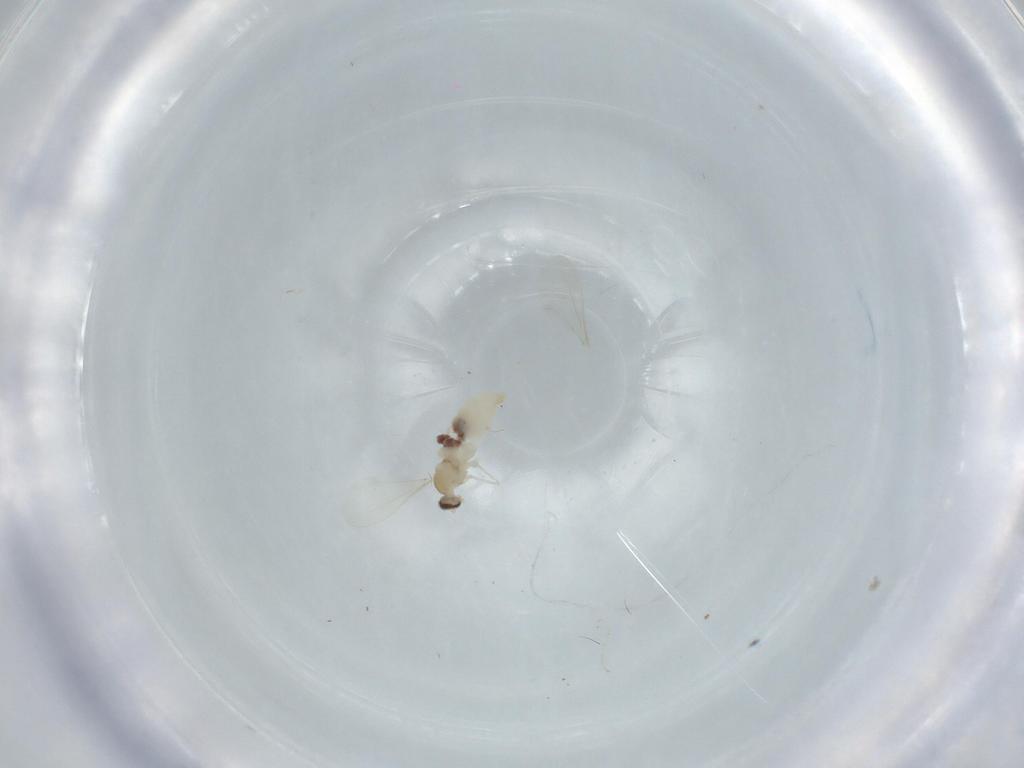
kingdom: Animalia
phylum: Arthropoda
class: Insecta
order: Diptera
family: Cecidomyiidae
